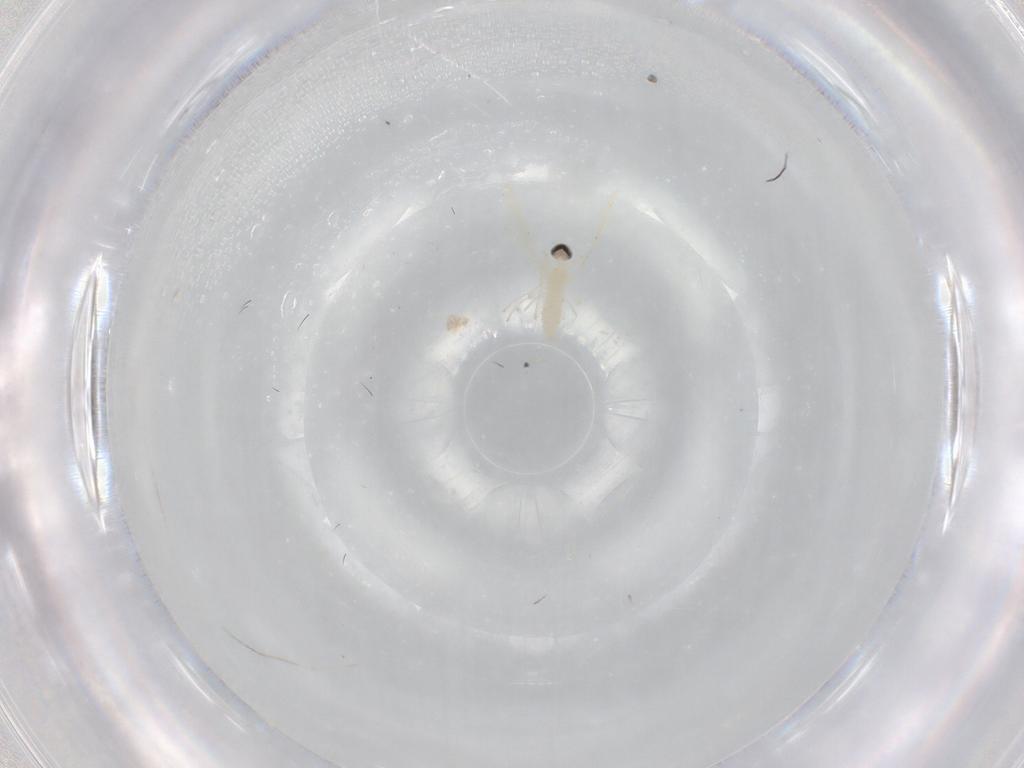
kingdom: Animalia
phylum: Arthropoda
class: Insecta
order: Diptera
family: Cecidomyiidae
